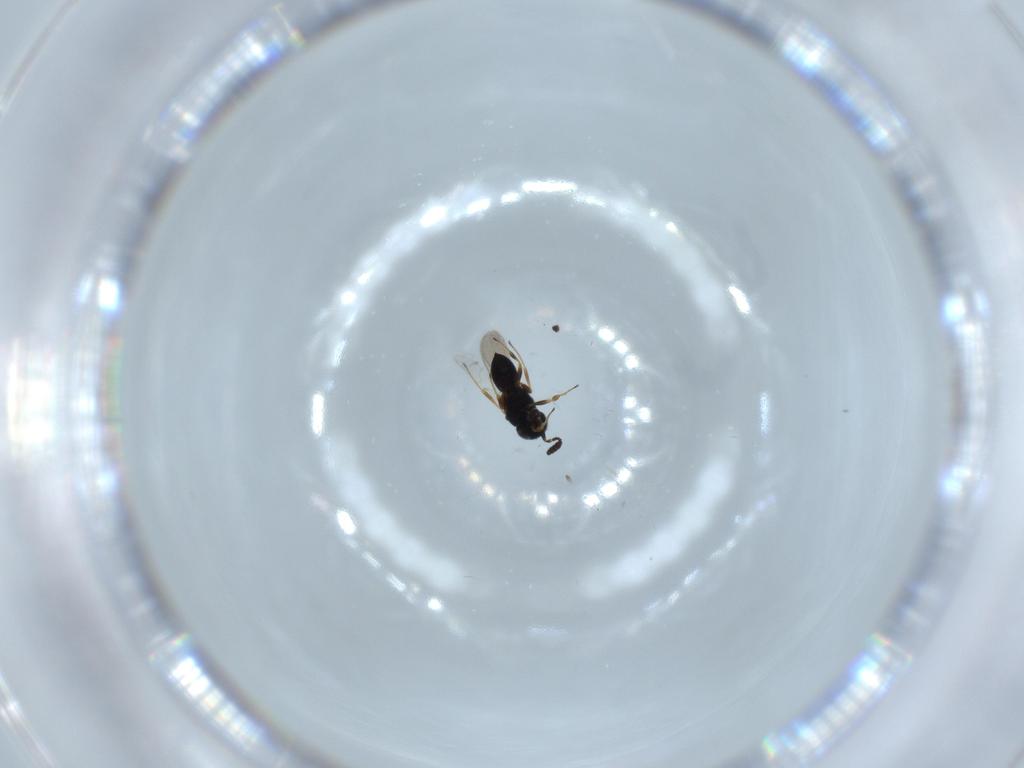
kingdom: Animalia
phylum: Arthropoda
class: Insecta
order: Hymenoptera
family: Scelionidae
